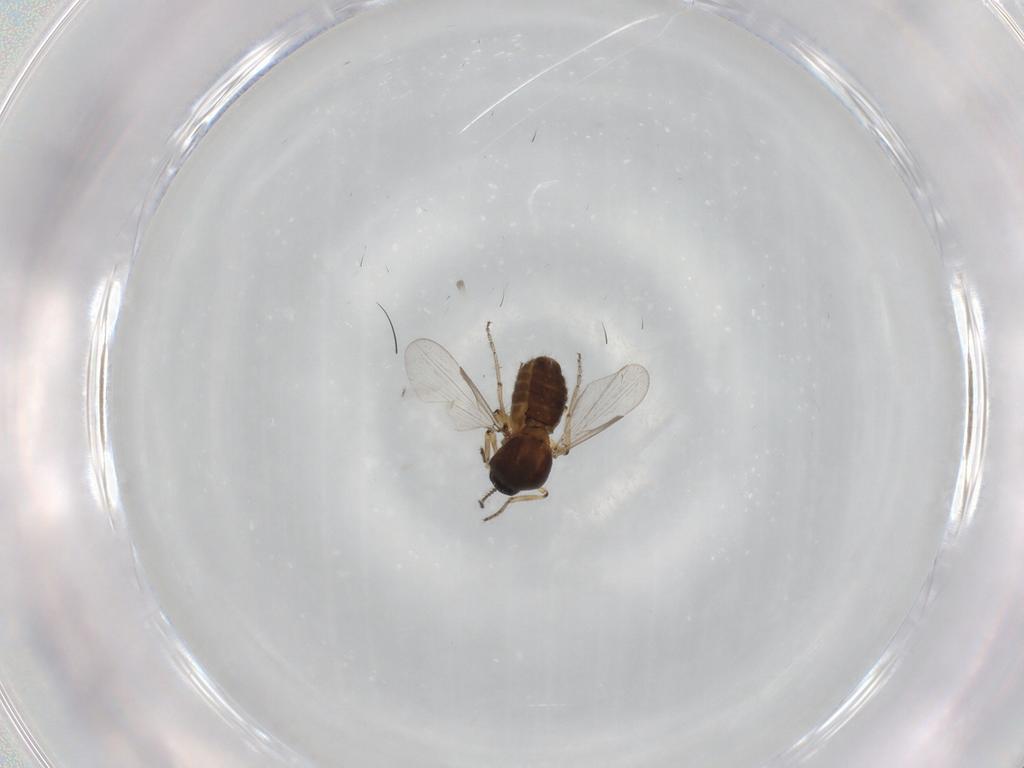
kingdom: Animalia
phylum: Arthropoda
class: Insecta
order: Diptera
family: Ceratopogonidae
